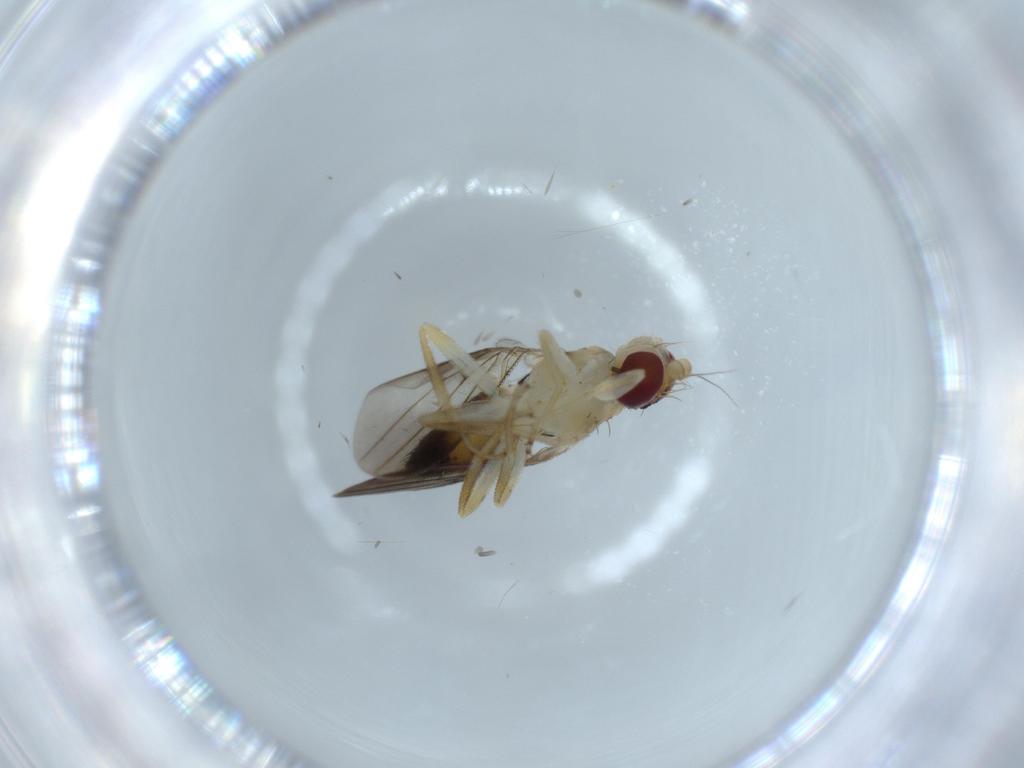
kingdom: Animalia
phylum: Arthropoda
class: Insecta
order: Diptera
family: Clusiidae
